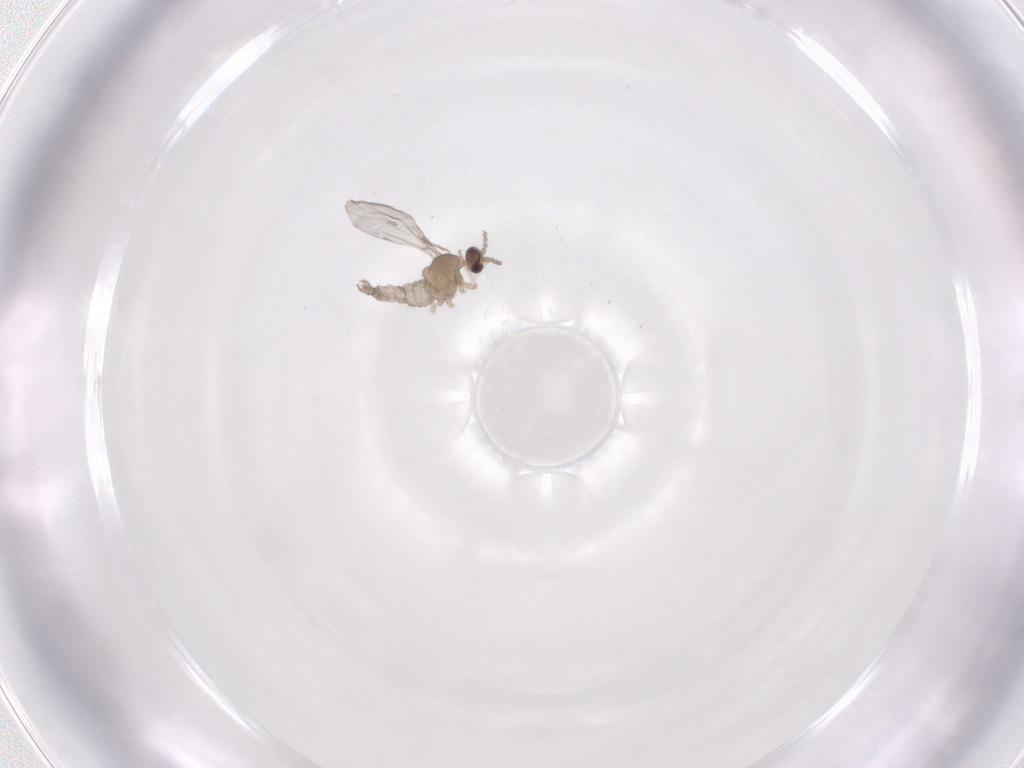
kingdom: Animalia
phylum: Arthropoda
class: Insecta
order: Diptera
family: Cecidomyiidae
